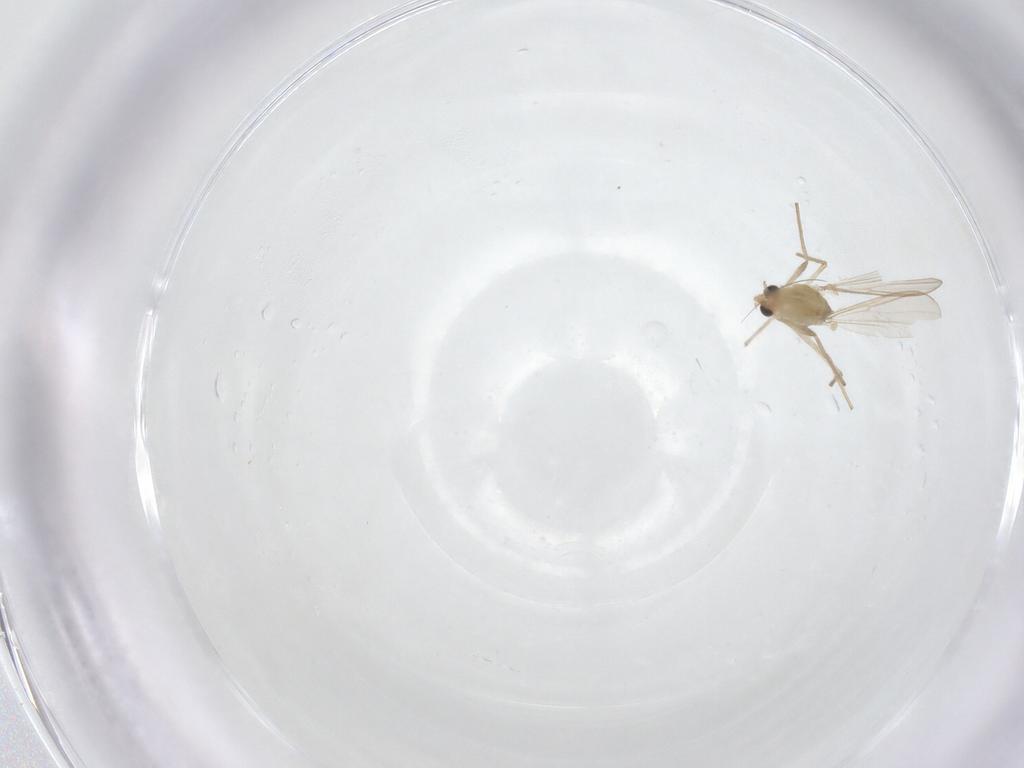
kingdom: Animalia
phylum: Arthropoda
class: Insecta
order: Diptera
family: Chironomidae
